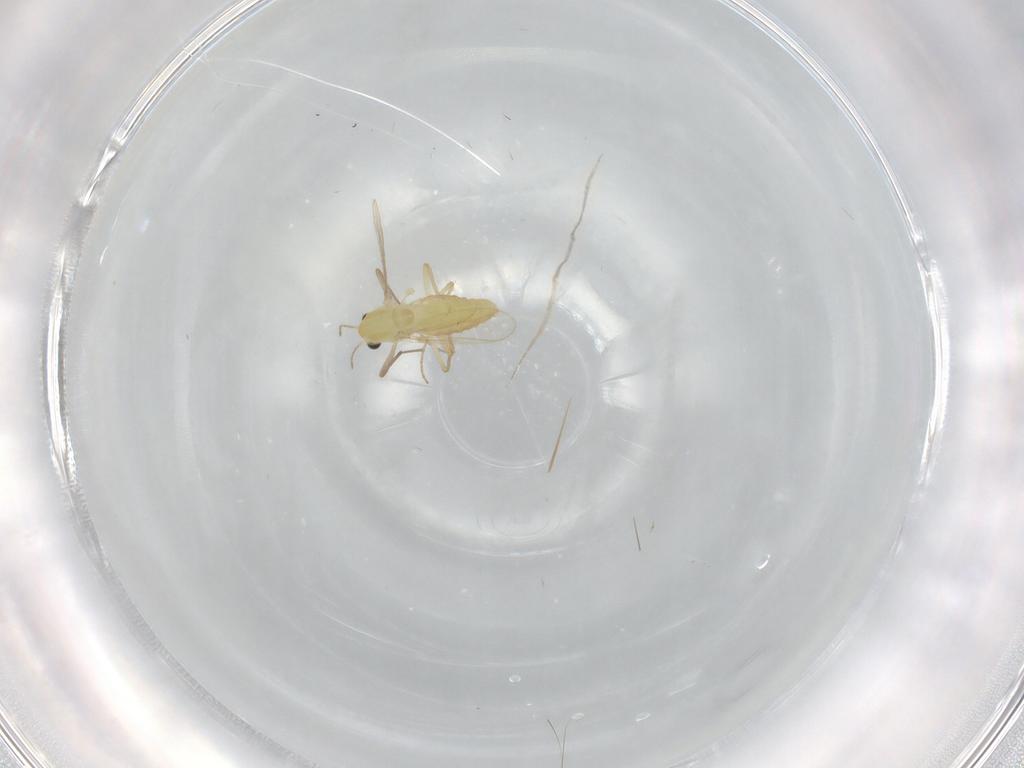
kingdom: Animalia
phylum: Arthropoda
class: Insecta
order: Diptera
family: Chironomidae
